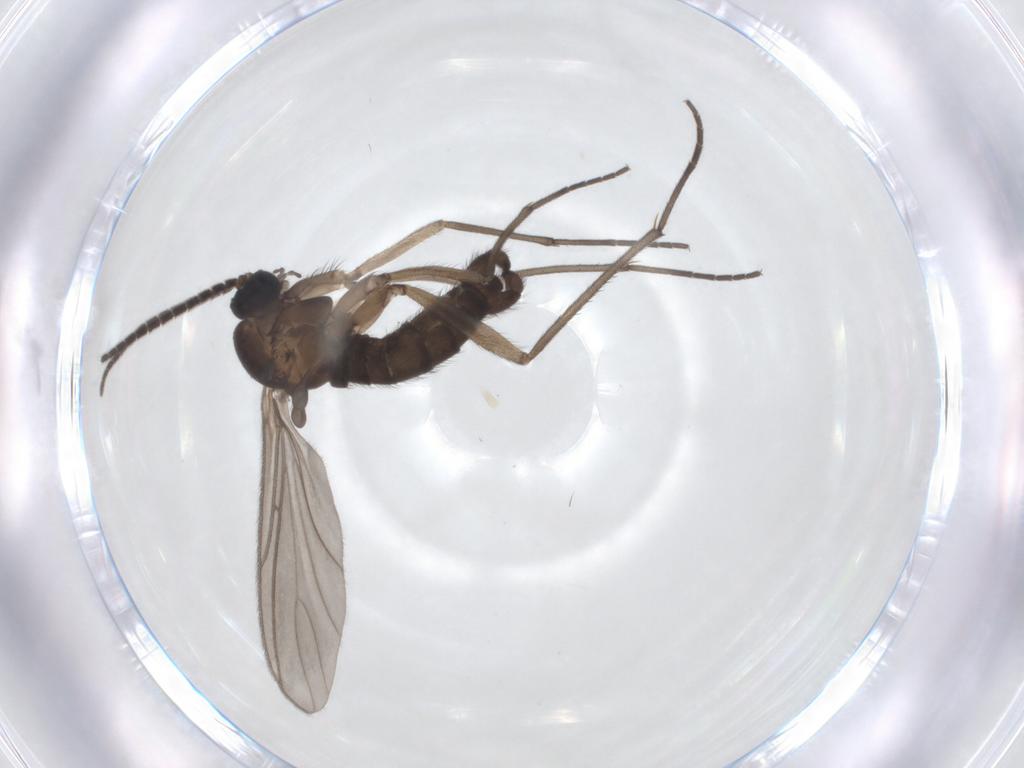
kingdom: Animalia
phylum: Arthropoda
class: Insecta
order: Diptera
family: Sciaridae
